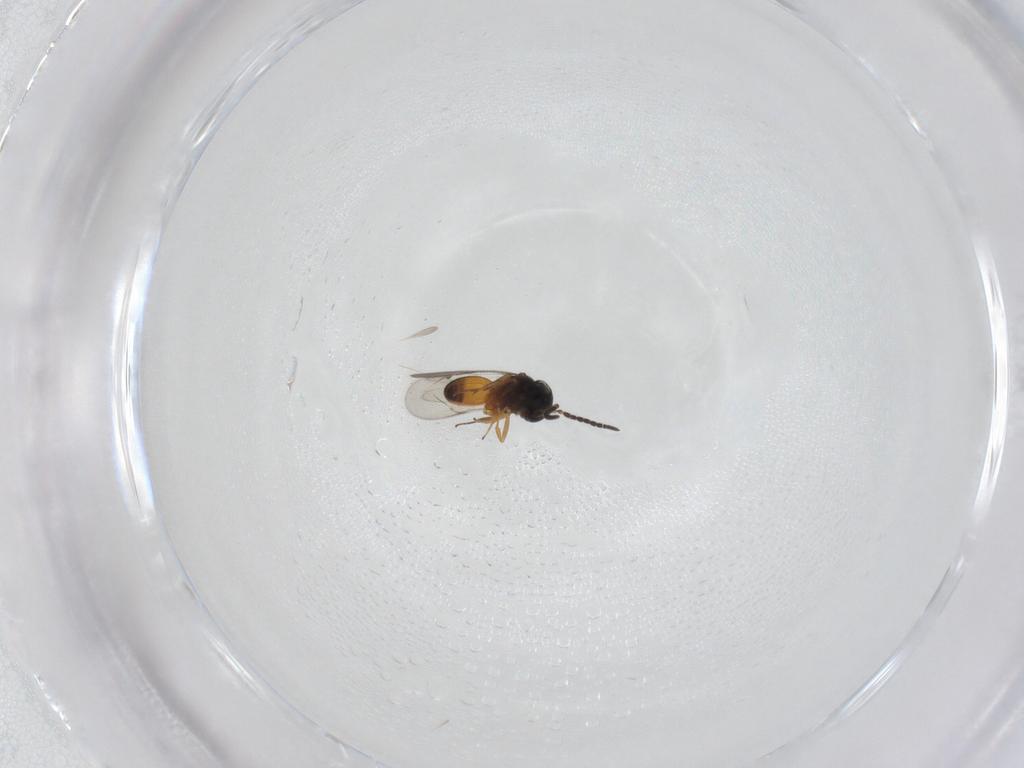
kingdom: Animalia
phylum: Arthropoda
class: Insecta
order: Hymenoptera
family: Scelionidae
